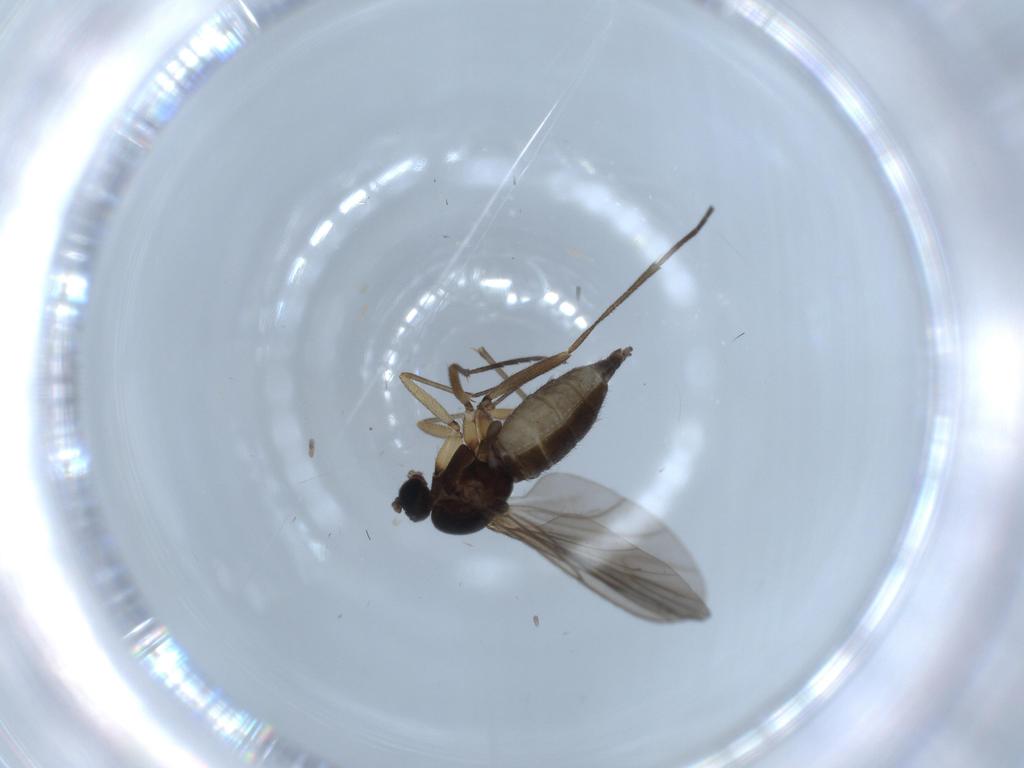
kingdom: Animalia
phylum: Arthropoda
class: Insecta
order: Diptera
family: Sciaridae
